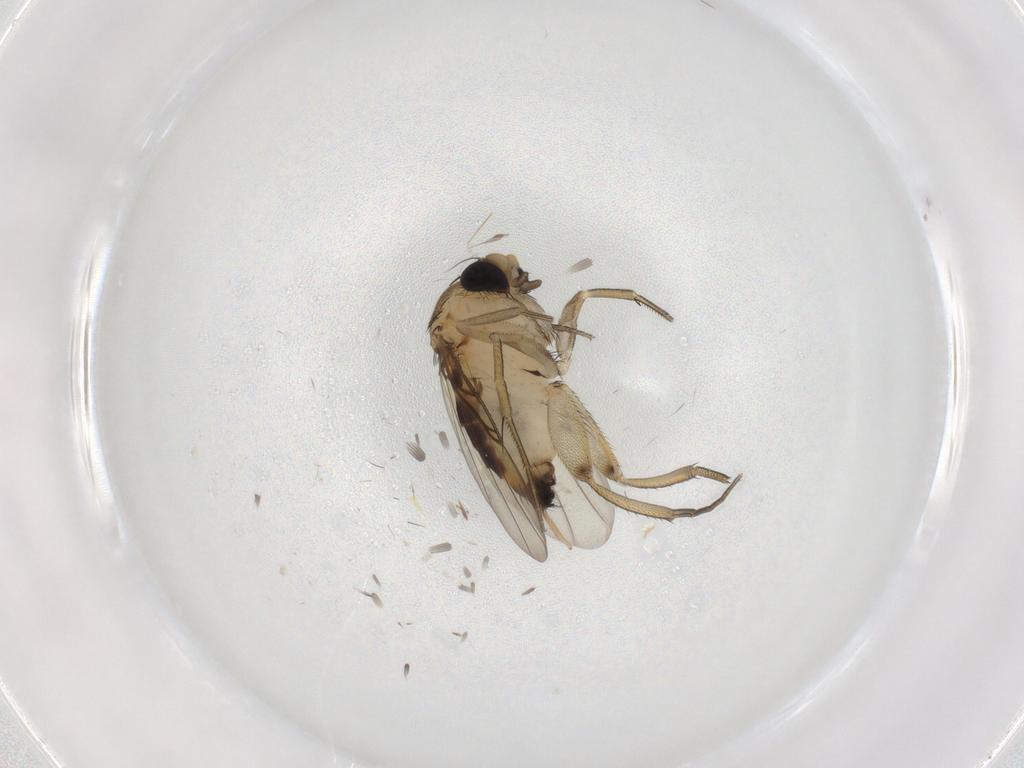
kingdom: Animalia
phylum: Arthropoda
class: Insecta
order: Diptera
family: Phoridae
